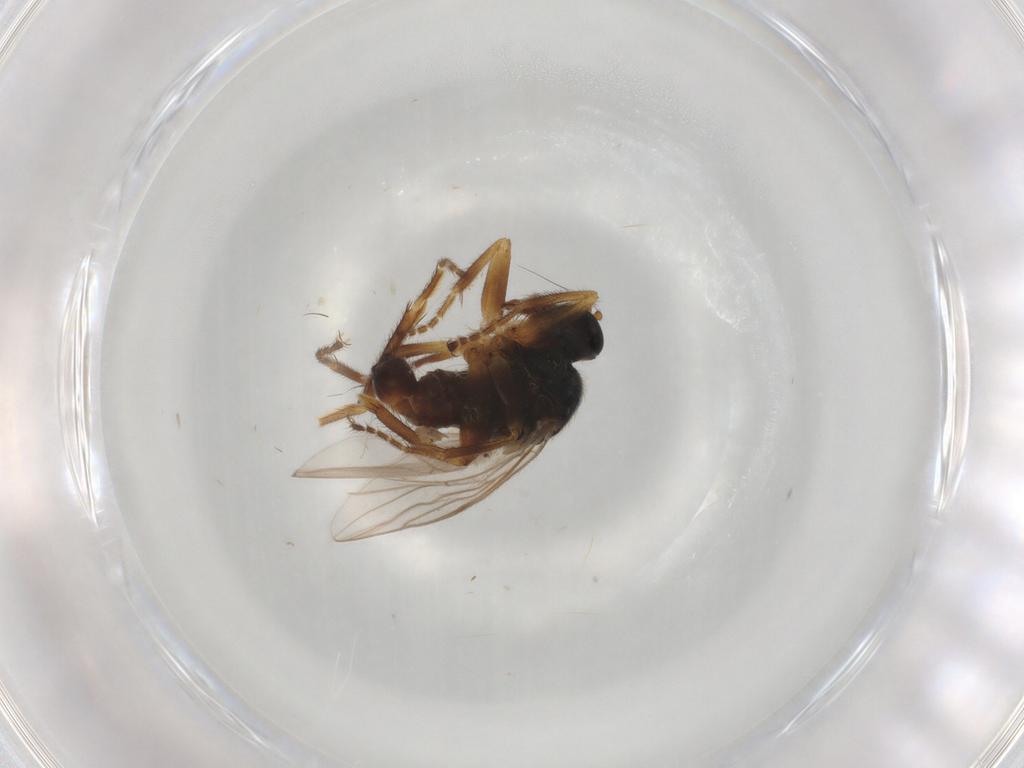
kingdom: Animalia
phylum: Arthropoda
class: Insecta
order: Diptera
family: Hybotidae
